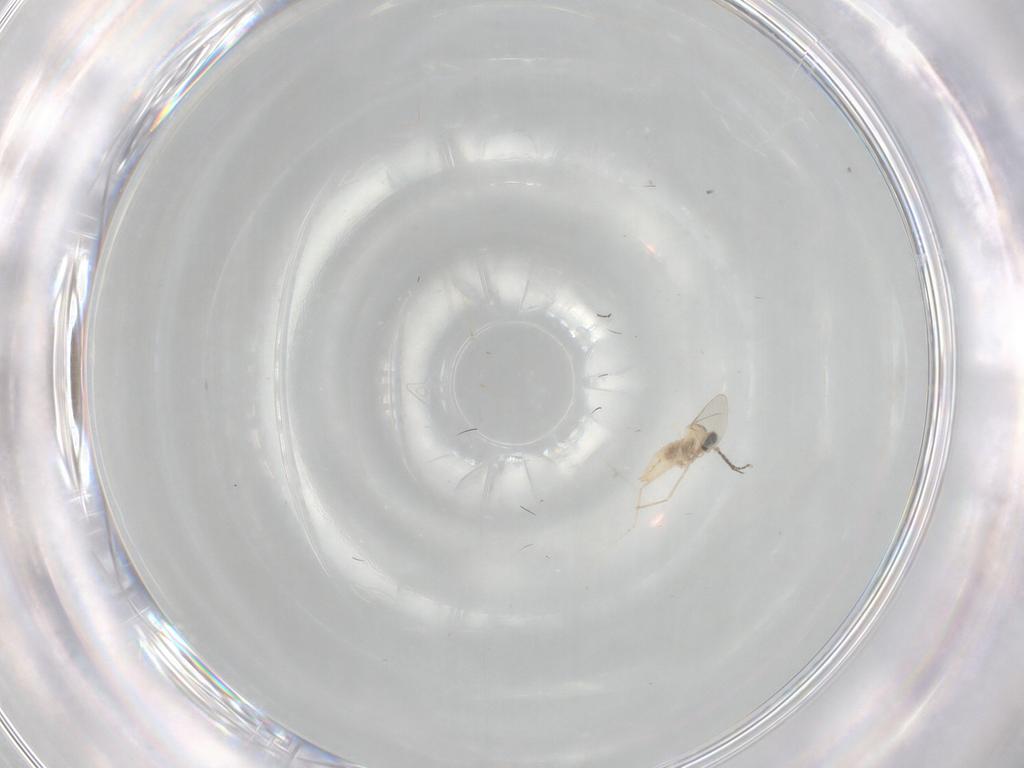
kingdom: Animalia
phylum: Arthropoda
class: Insecta
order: Diptera
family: Cecidomyiidae
